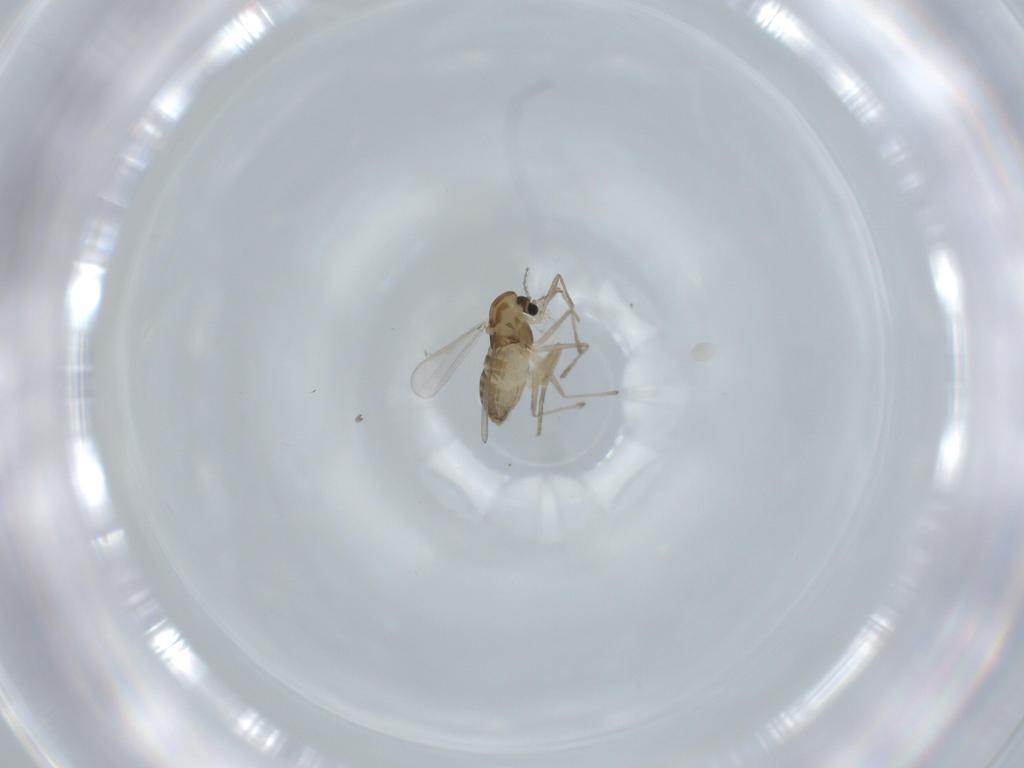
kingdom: Animalia
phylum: Arthropoda
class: Insecta
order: Diptera
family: Chironomidae
